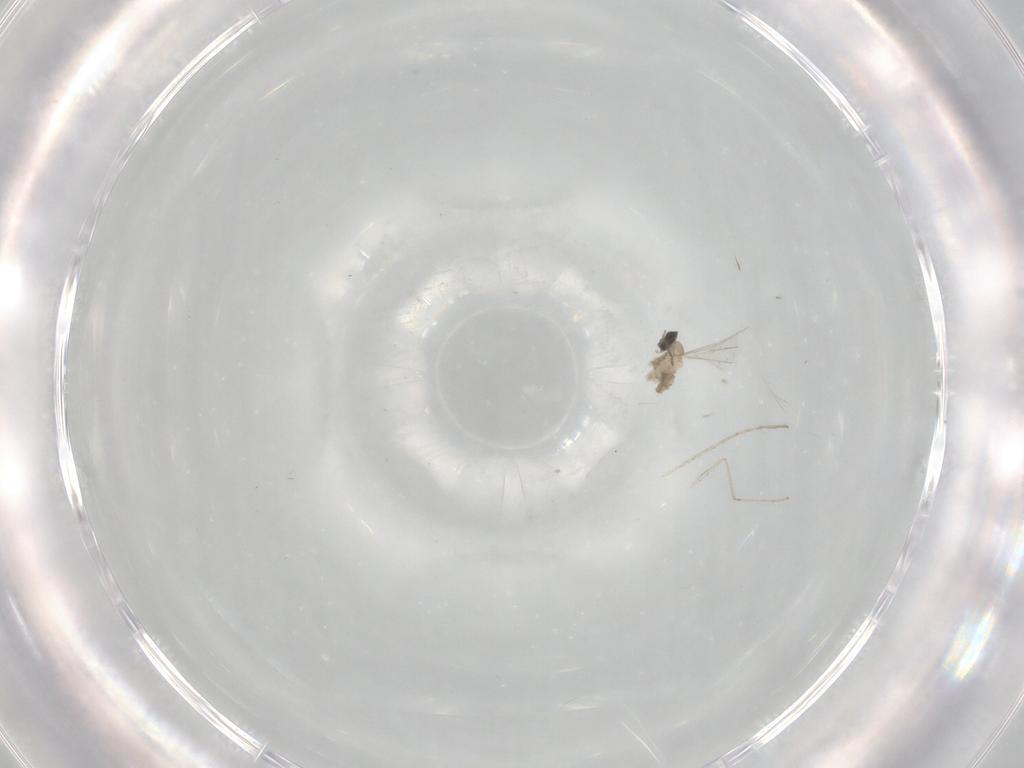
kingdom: Animalia
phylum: Arthropoda
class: Insecta
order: Diptera
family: Cecidomyiidae
